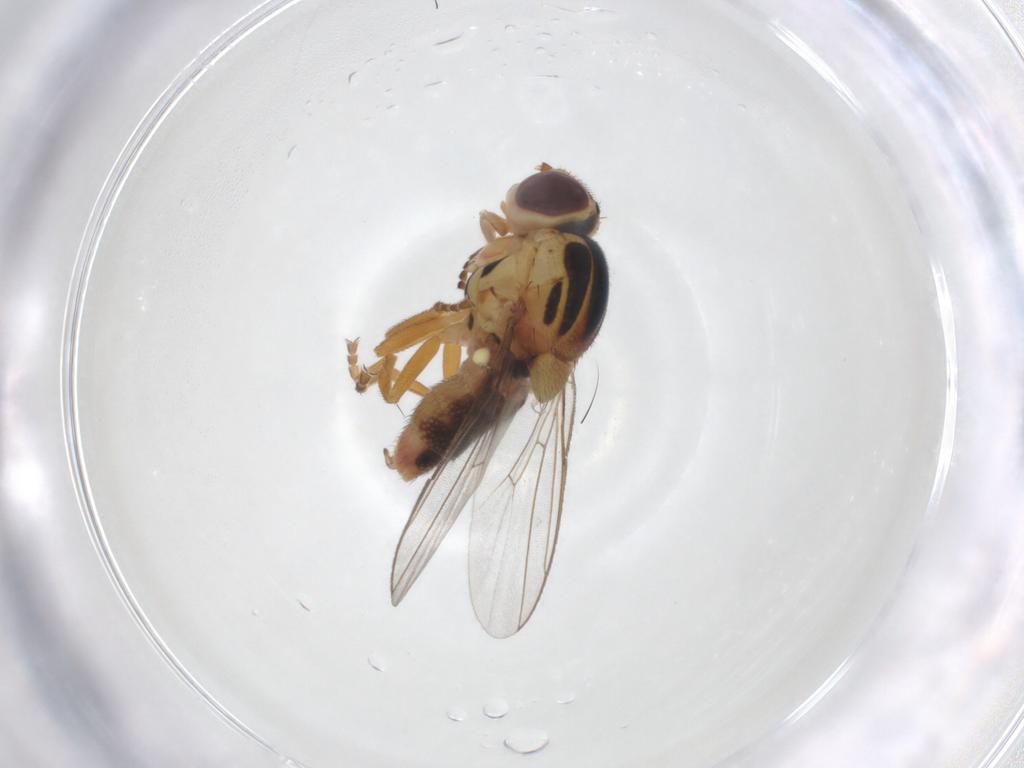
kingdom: Animalia
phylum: Arthropoda
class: Insecta
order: Diptera
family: Chloropidae
